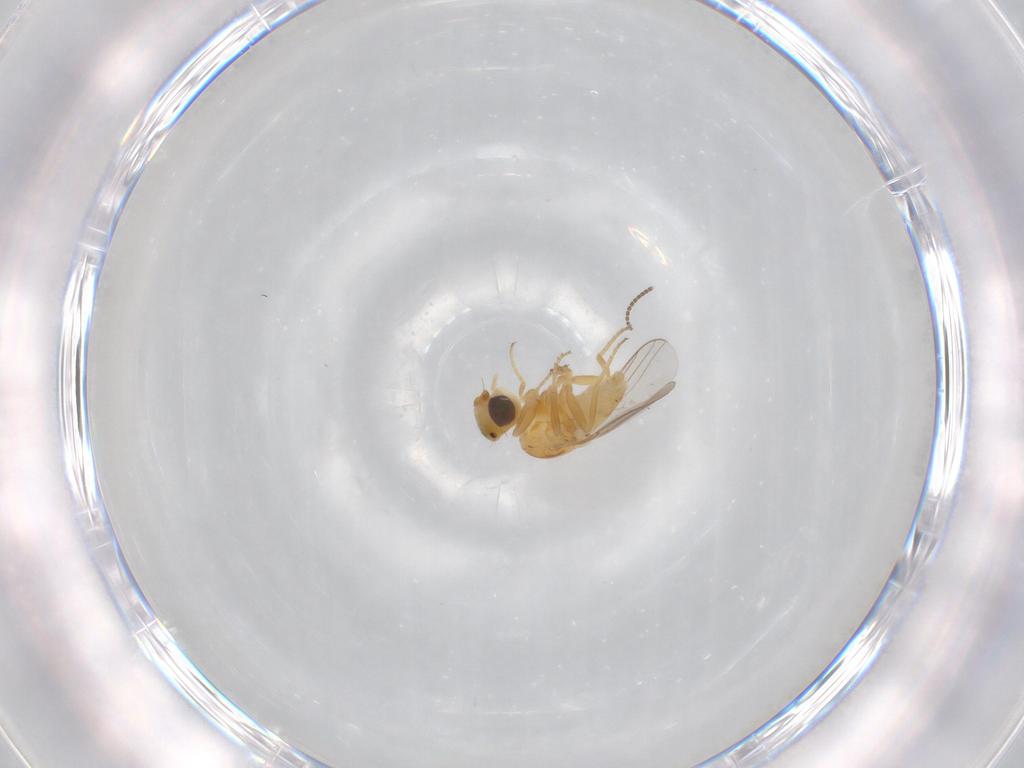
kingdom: Animalia
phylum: Arthropoda
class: Insecta
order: Diptera
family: Chloropidae
